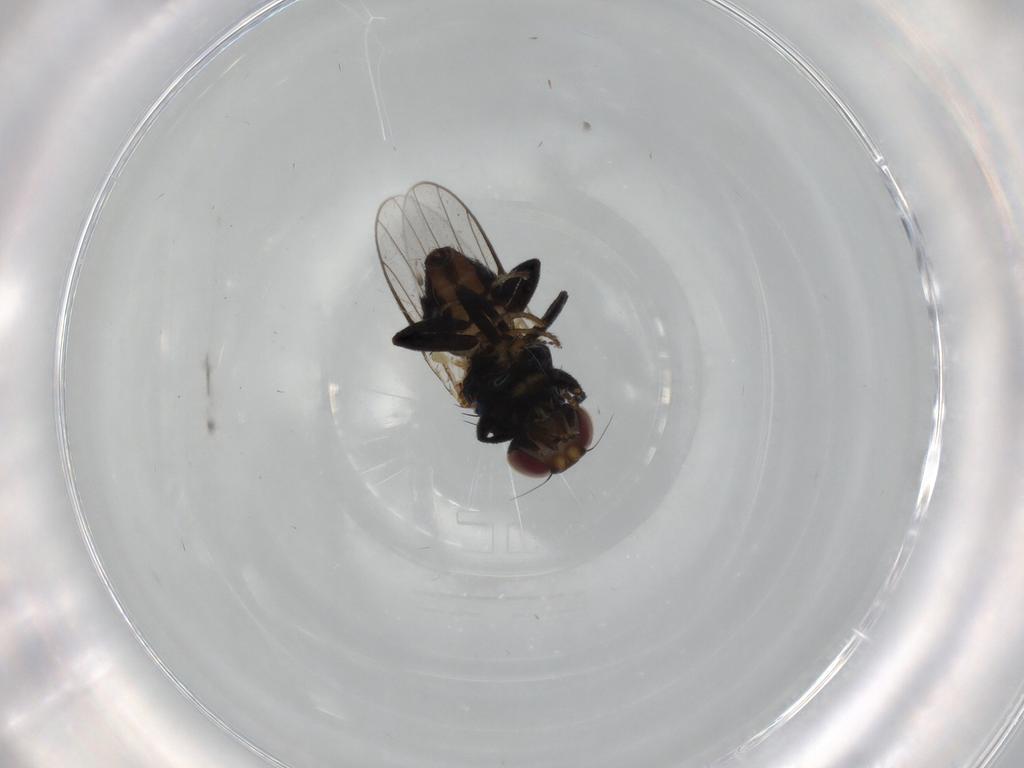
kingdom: Animalia
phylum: Arthropoda
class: Insecta
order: Diptera
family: Chloropidae
